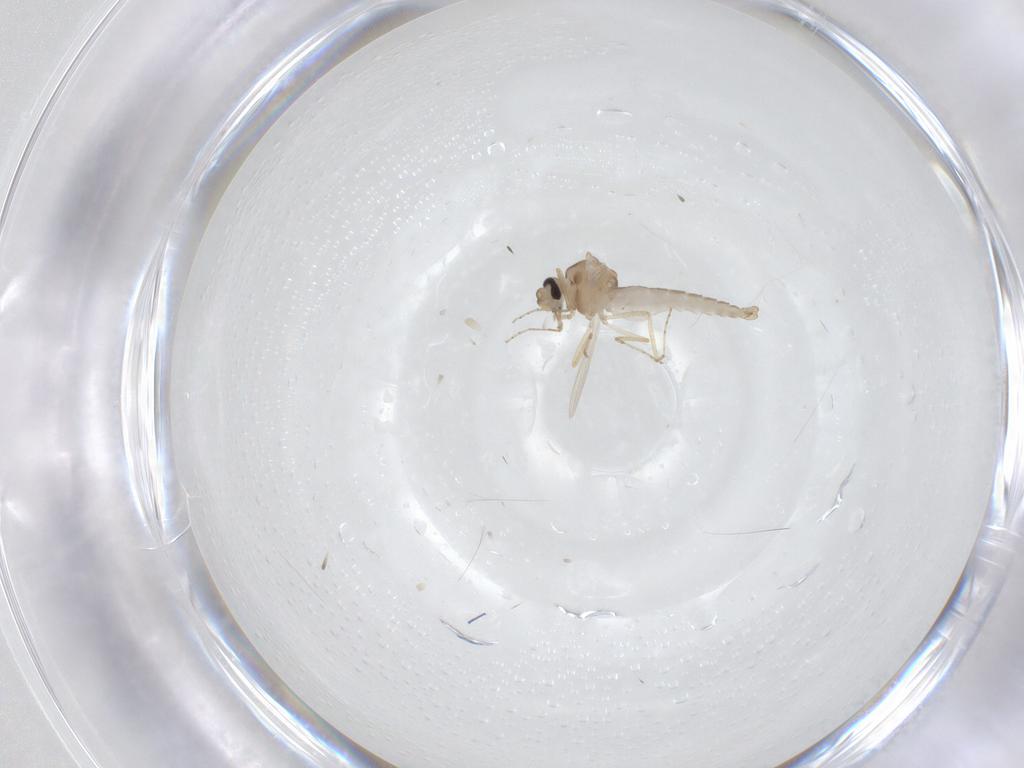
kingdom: Animalia
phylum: Arthropoda
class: Insecta
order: Diptera
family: Ceratopogonidae
